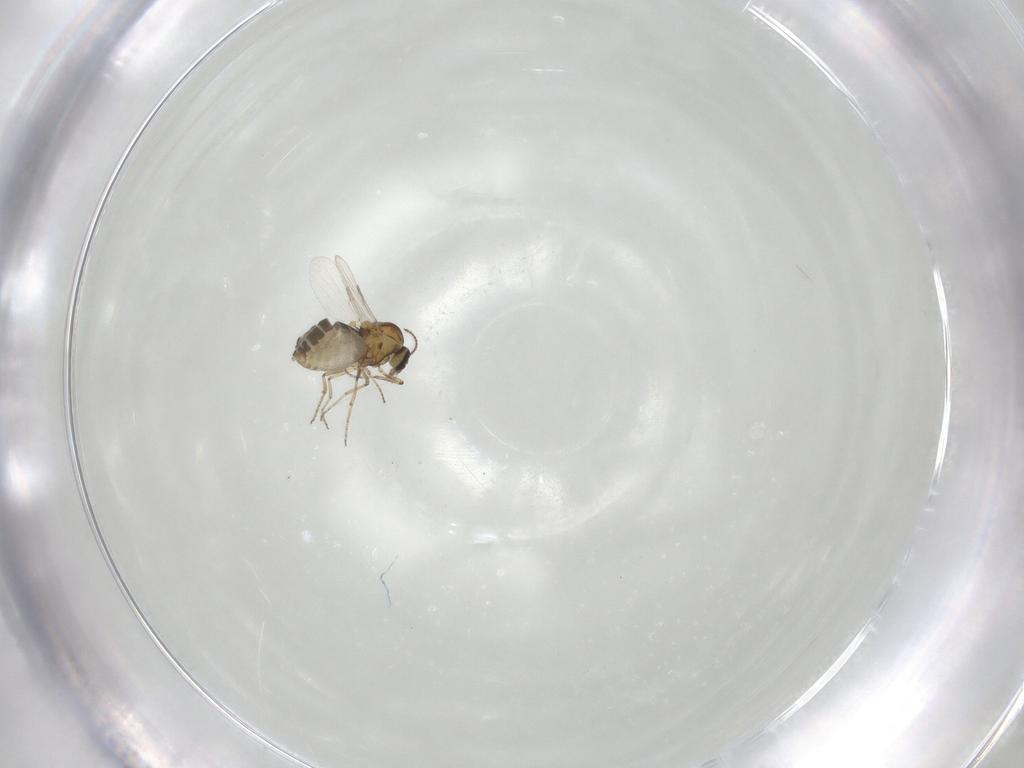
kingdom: Animalia
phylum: Arthropoda
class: Insecta
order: Diptera
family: Ceratopogonidae
